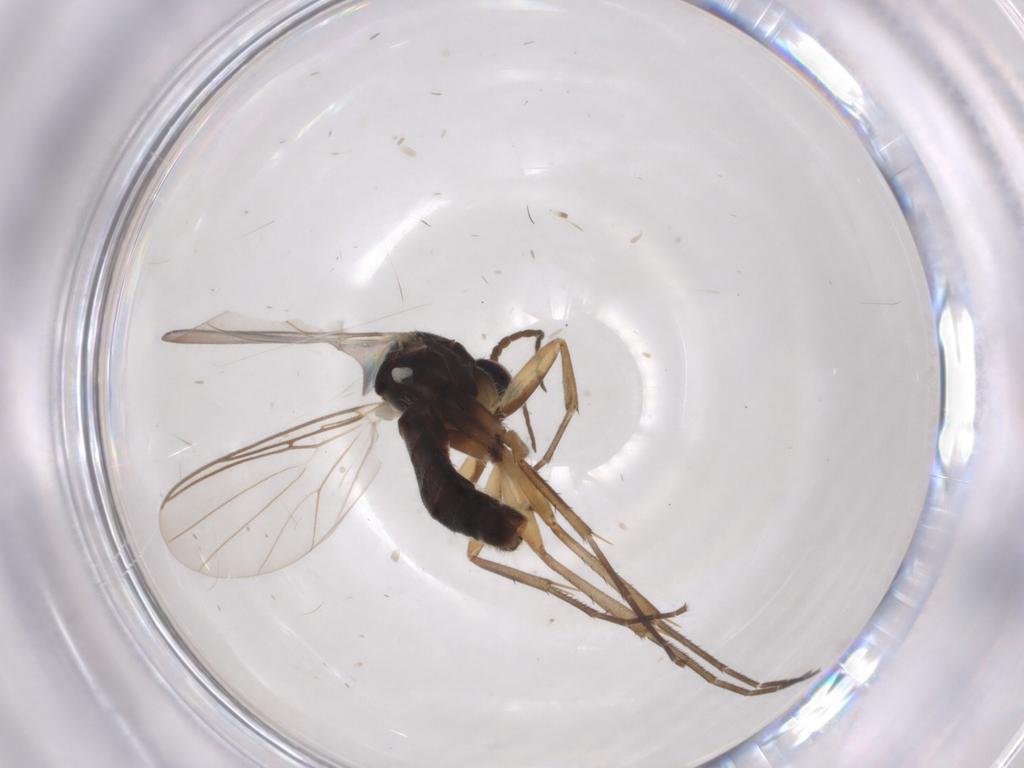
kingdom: Animalia
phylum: Arthropoda
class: Insecta
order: Diptera
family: Mycetophilidae
